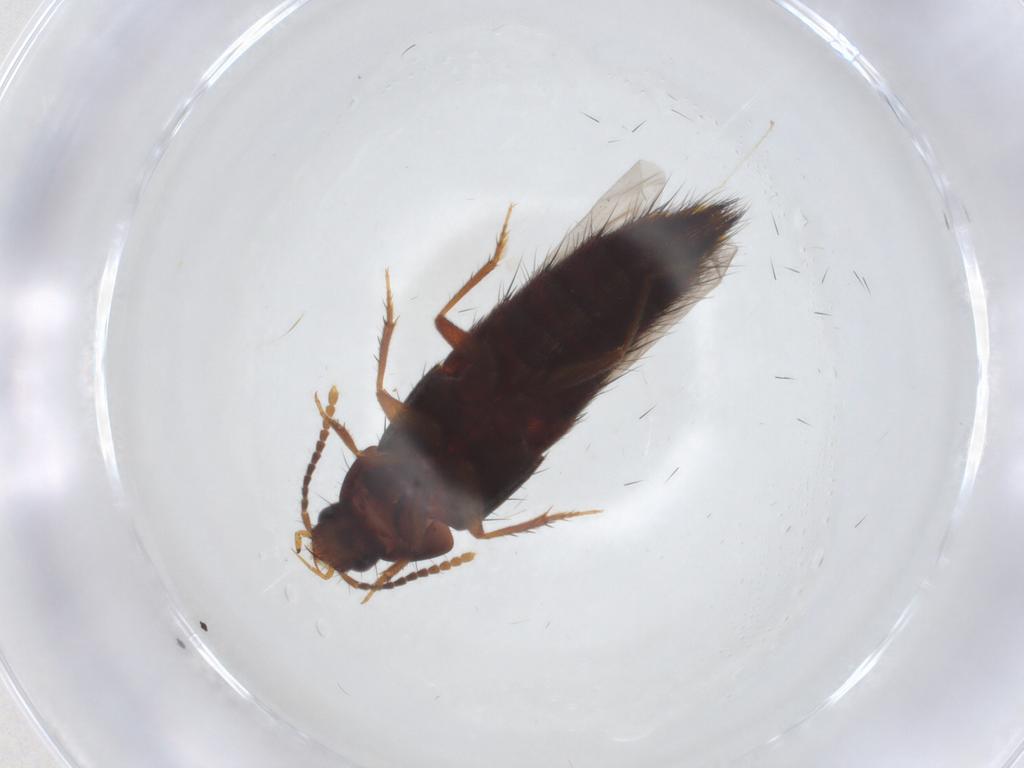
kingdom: Animalia
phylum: Arthropoda
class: Insecta
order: Coleoptera
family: Staphylinidae
